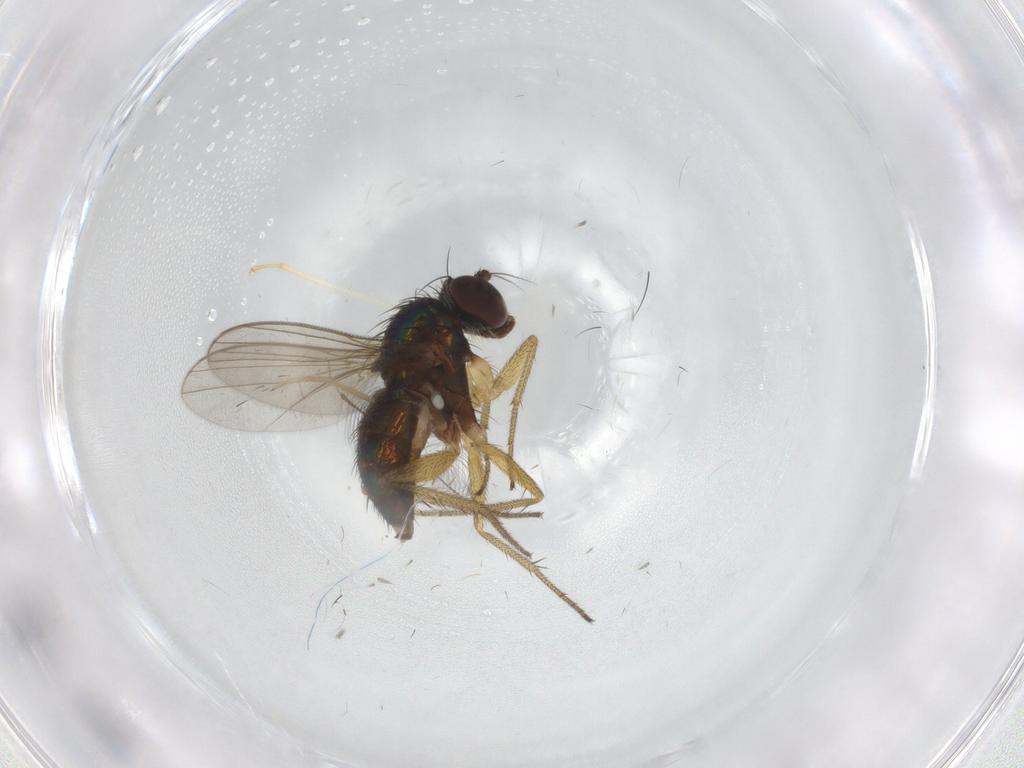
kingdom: Animalia
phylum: Arthropoda
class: Insecta
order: Diptera
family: Chironomidae
